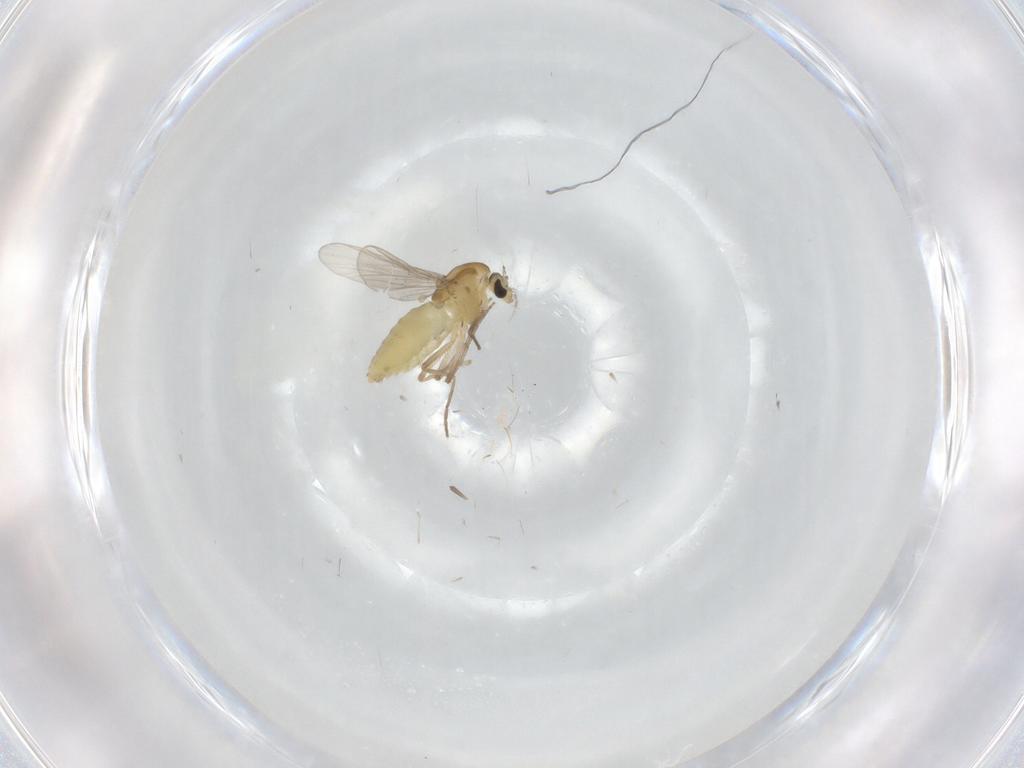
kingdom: Animalia
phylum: Arthropoda
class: Insecta
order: Diptera
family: Chironomidae
